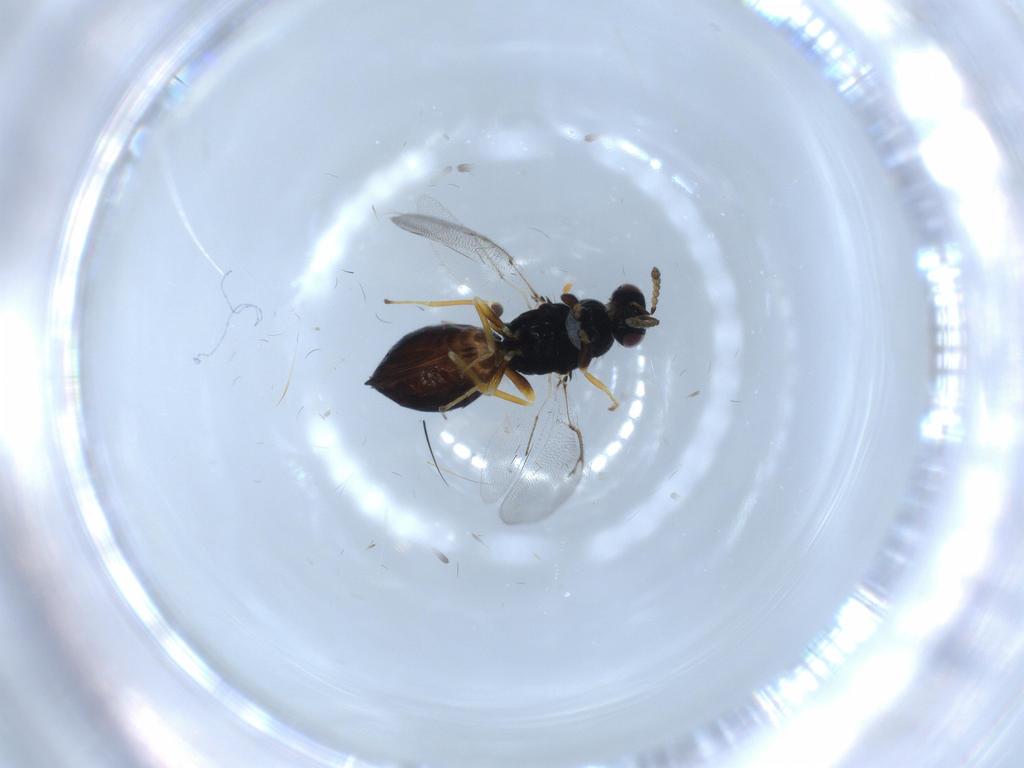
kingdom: Animalia
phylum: Arthropoda
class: Insecta
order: Hymenoptera
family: Eulophidae
